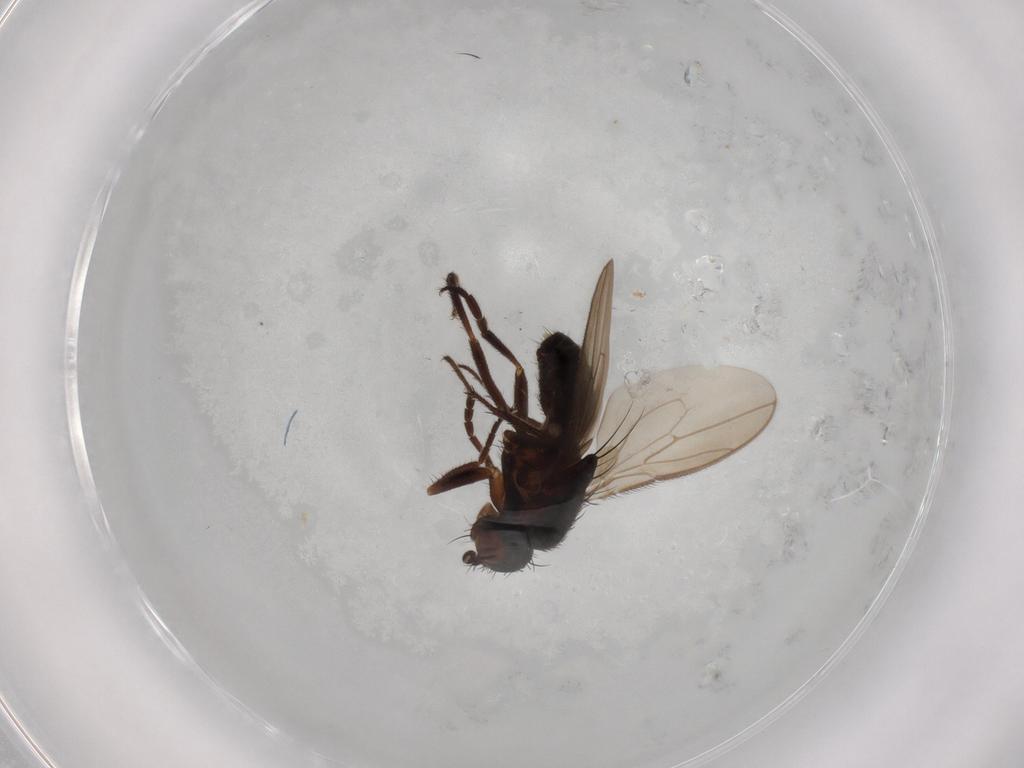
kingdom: Animalia
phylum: Arthropoda
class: Insecta
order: Diptera
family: Sphaeroceridae
